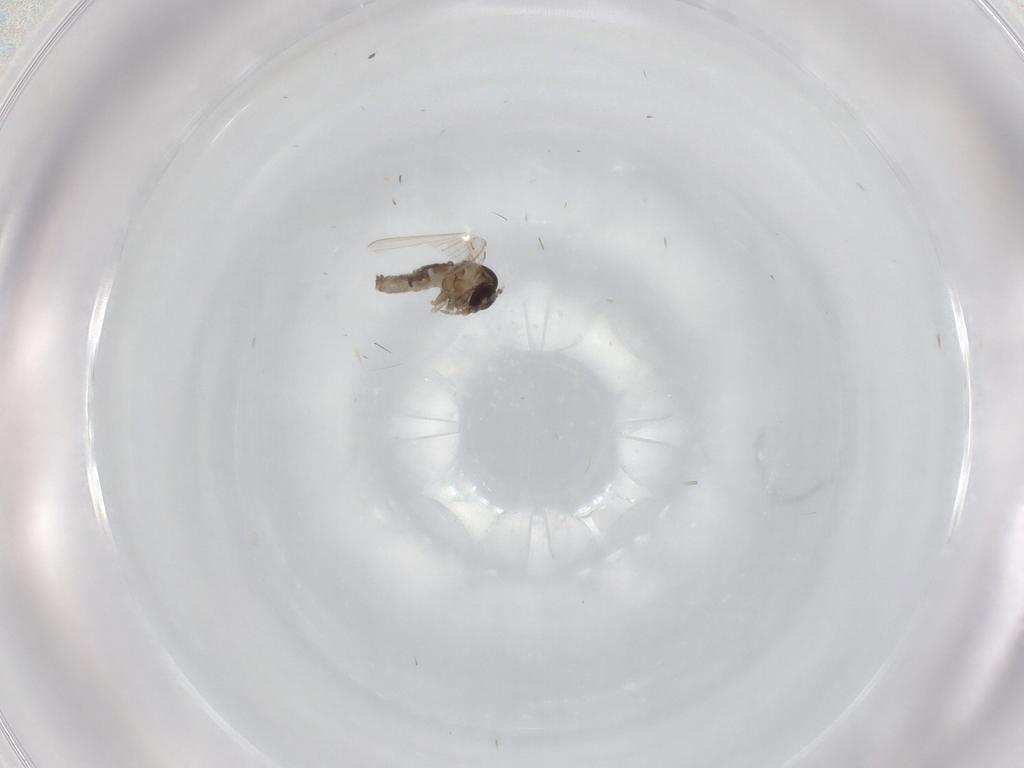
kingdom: Animalia
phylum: Arthropoda
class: Insecta
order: Diptera
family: Psychodidae
